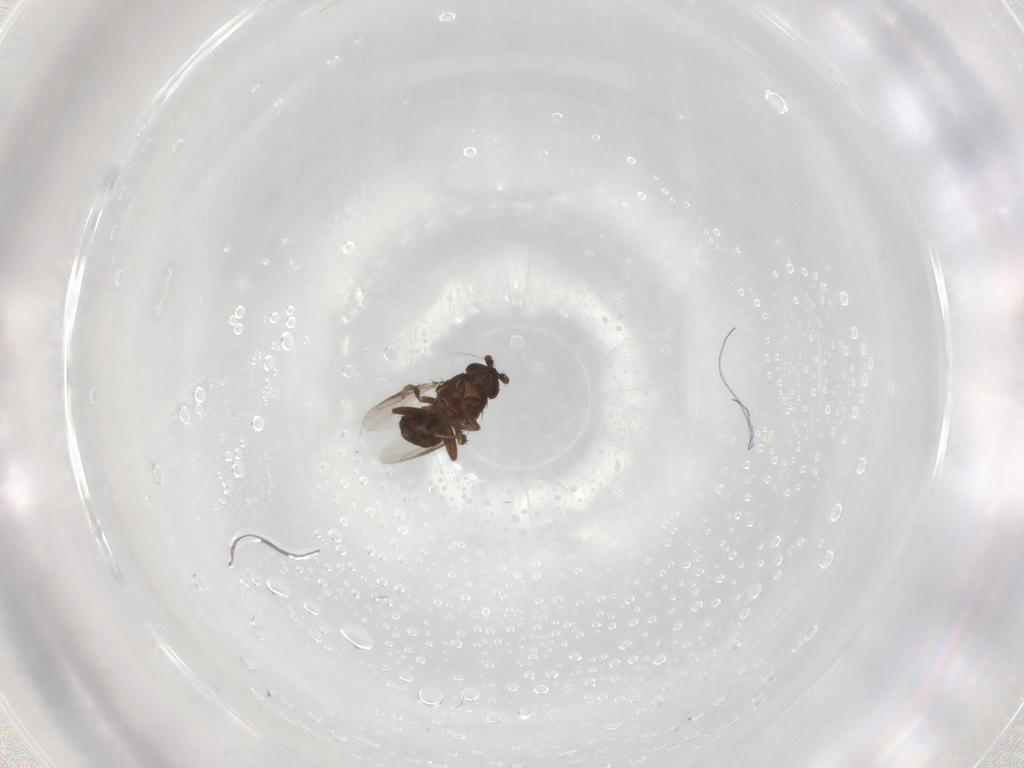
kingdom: Animalia
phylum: Arthropoda
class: Insecta
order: Diptera
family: Sphaeroceridae
